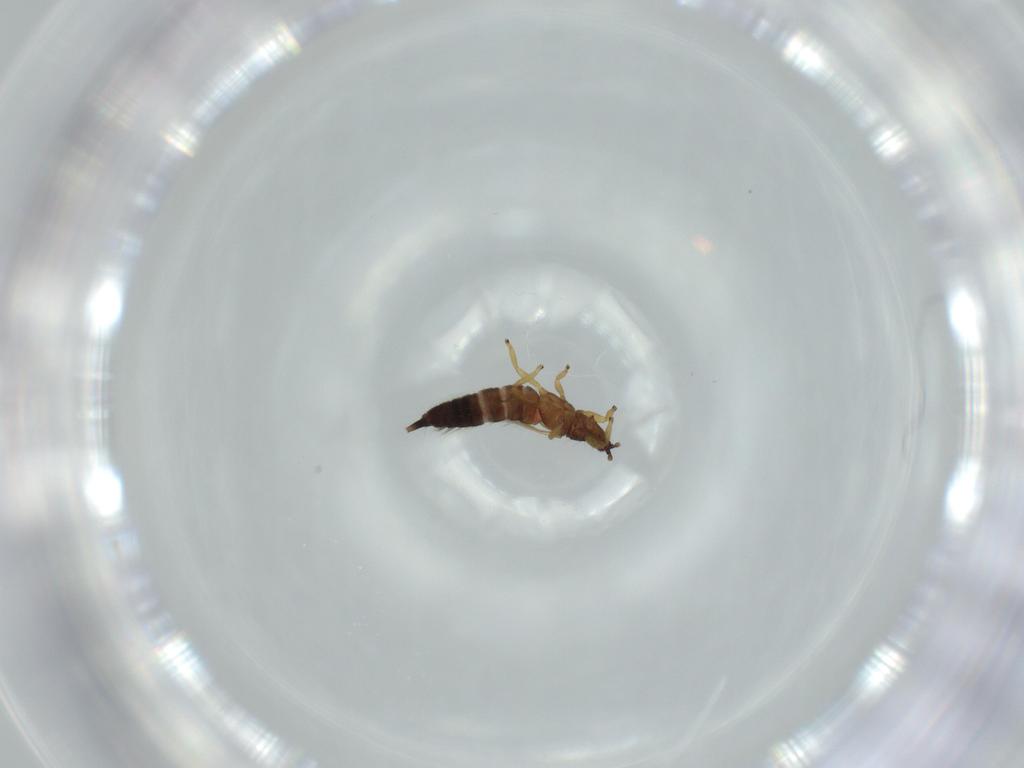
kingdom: Animalia
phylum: Arthropoda
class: Insecta
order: Thysanoptera
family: Phlaeothripidae
